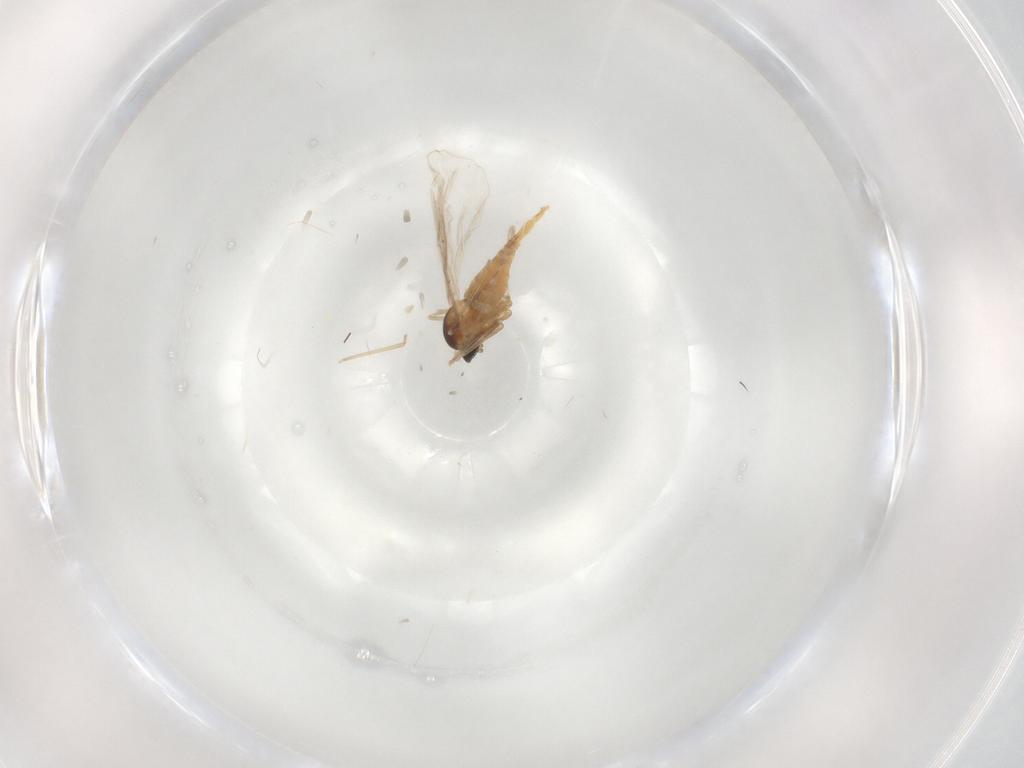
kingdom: Animalia
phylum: Arthropoda
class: Insecta
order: Diptera
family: Cecidomyiidae
